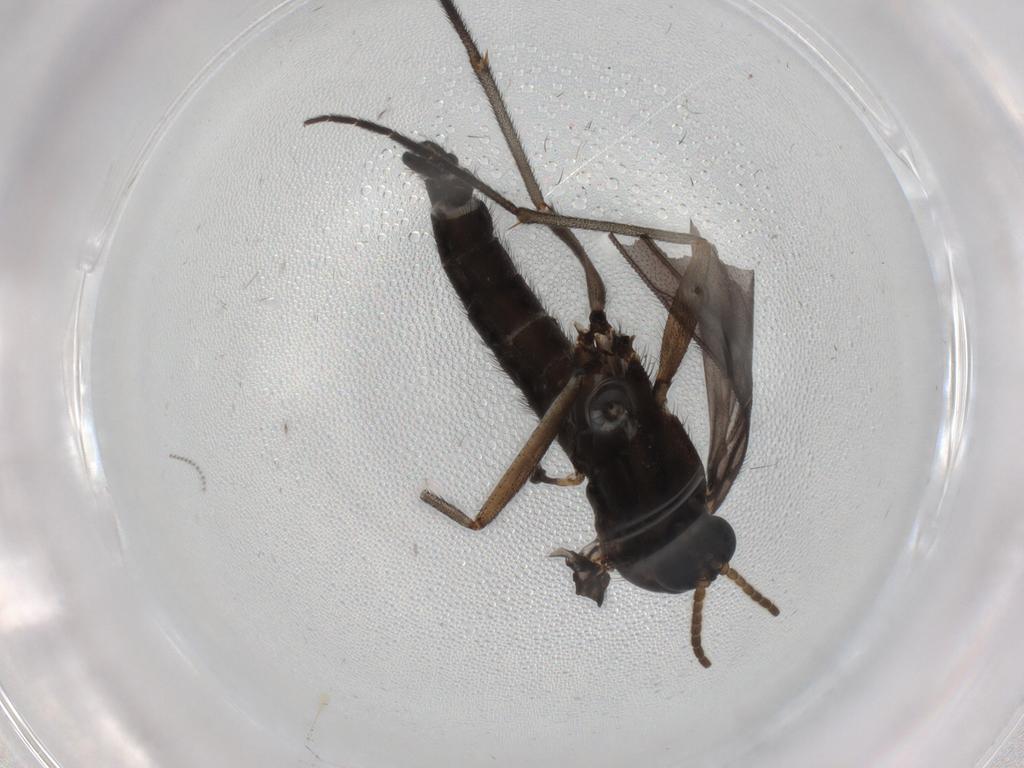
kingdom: Animalia
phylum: Arthropoda
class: Insecta
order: Diptera
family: Sciaridae
